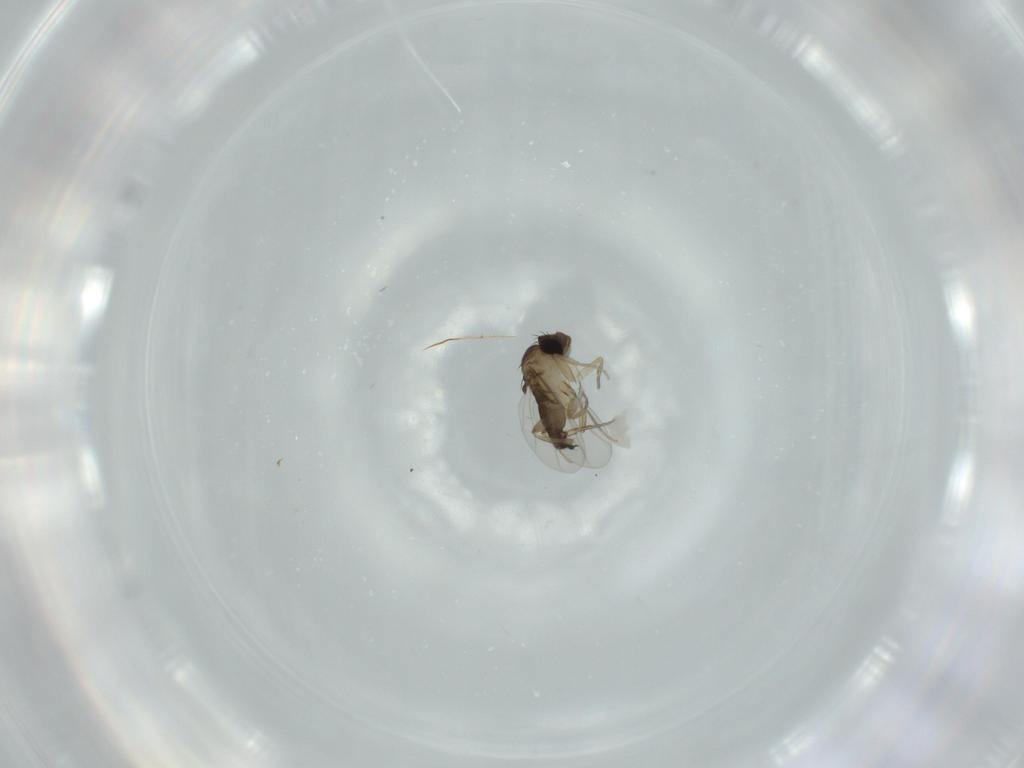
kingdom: Animalia
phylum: Arthropoda
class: Insecta
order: Diptera
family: Cecidomyiidae
